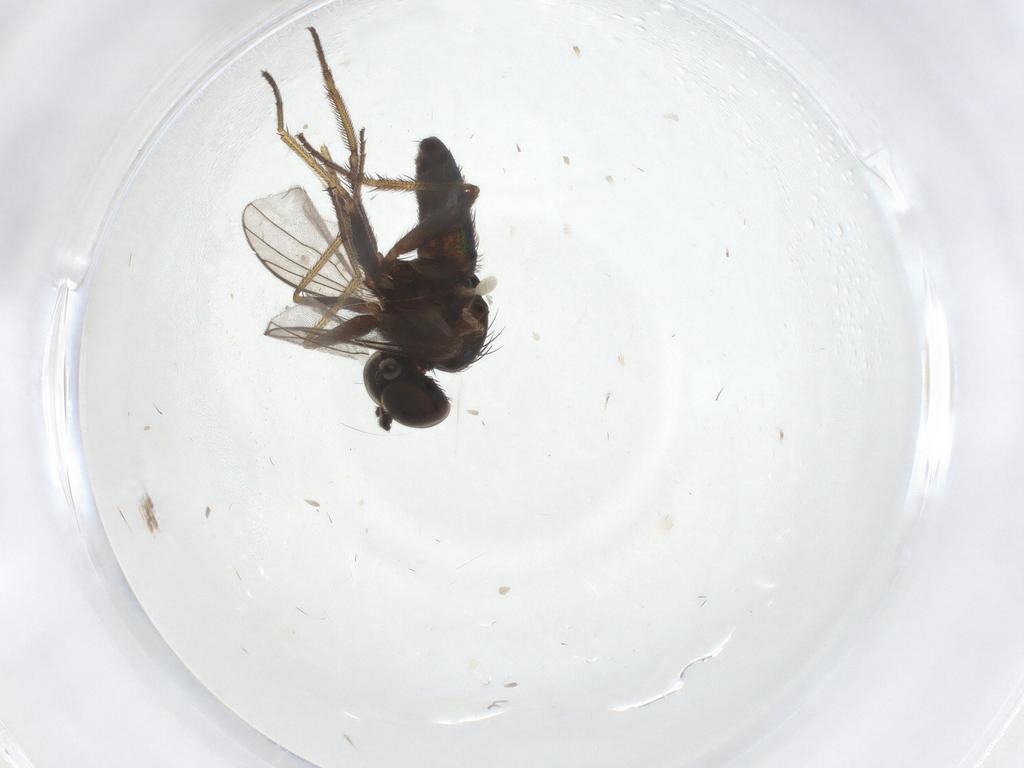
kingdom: Animalia
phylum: Arthropoda
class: Insecta
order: Diptera
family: Dolichopodidae
